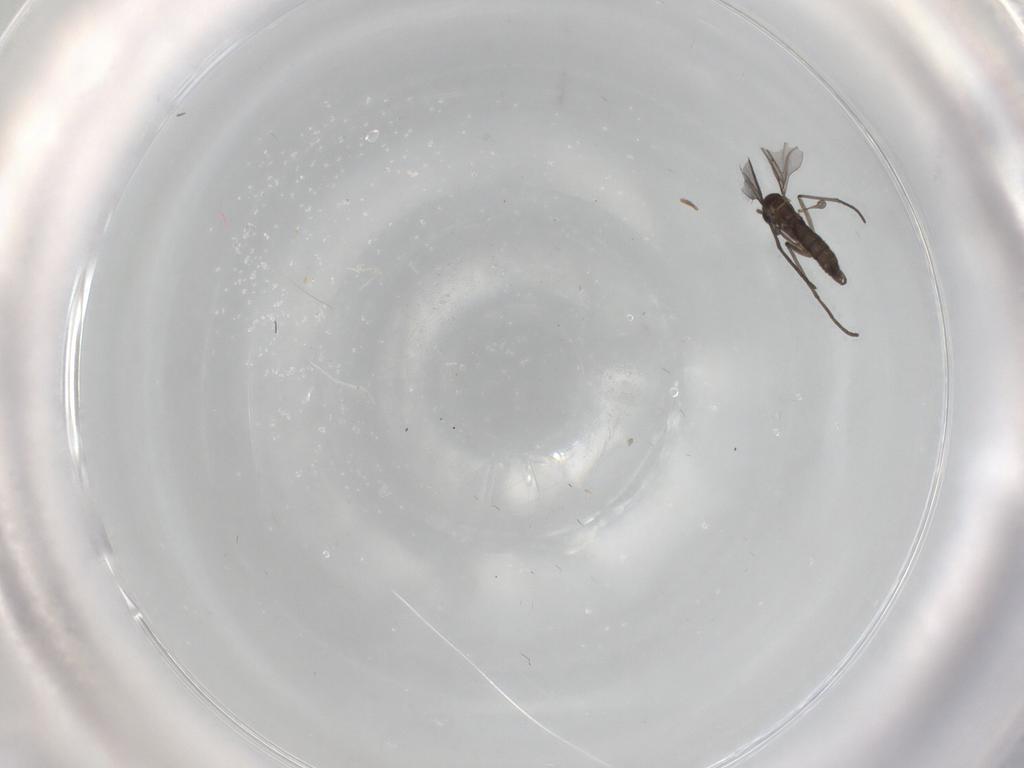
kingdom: Animalia
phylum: Arthropoda
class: Insecta
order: Diptera
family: Sciaridae
